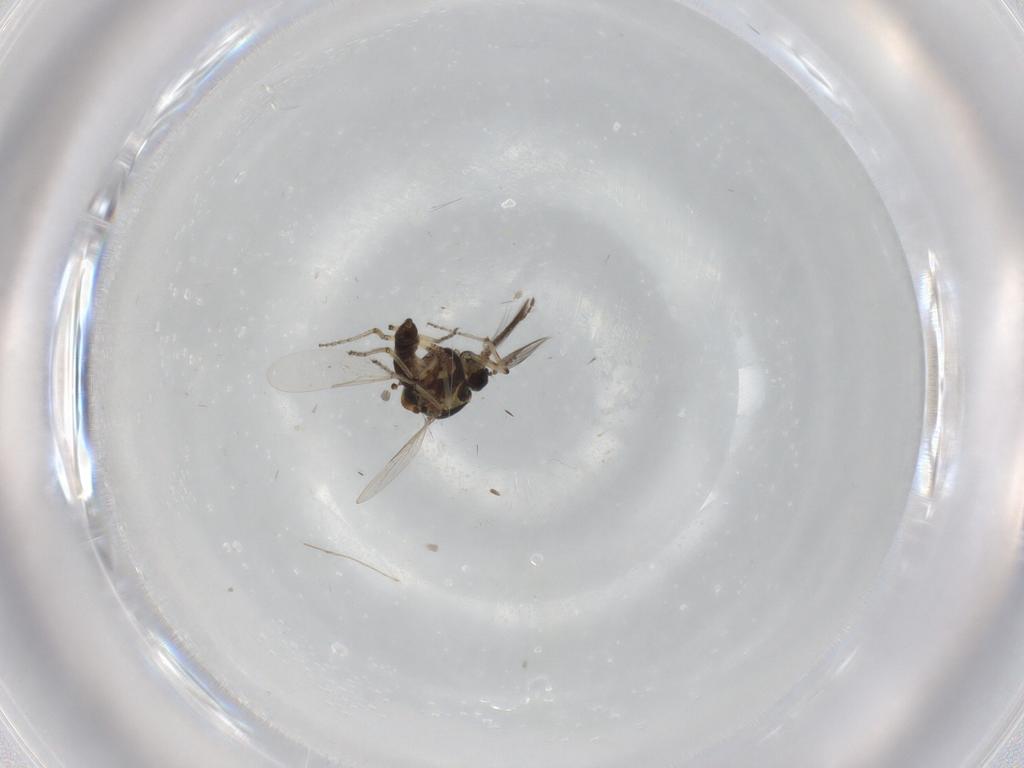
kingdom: Animalia
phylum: Arthropoda
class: Insecta
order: Diptera
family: Ceratopogonidae
